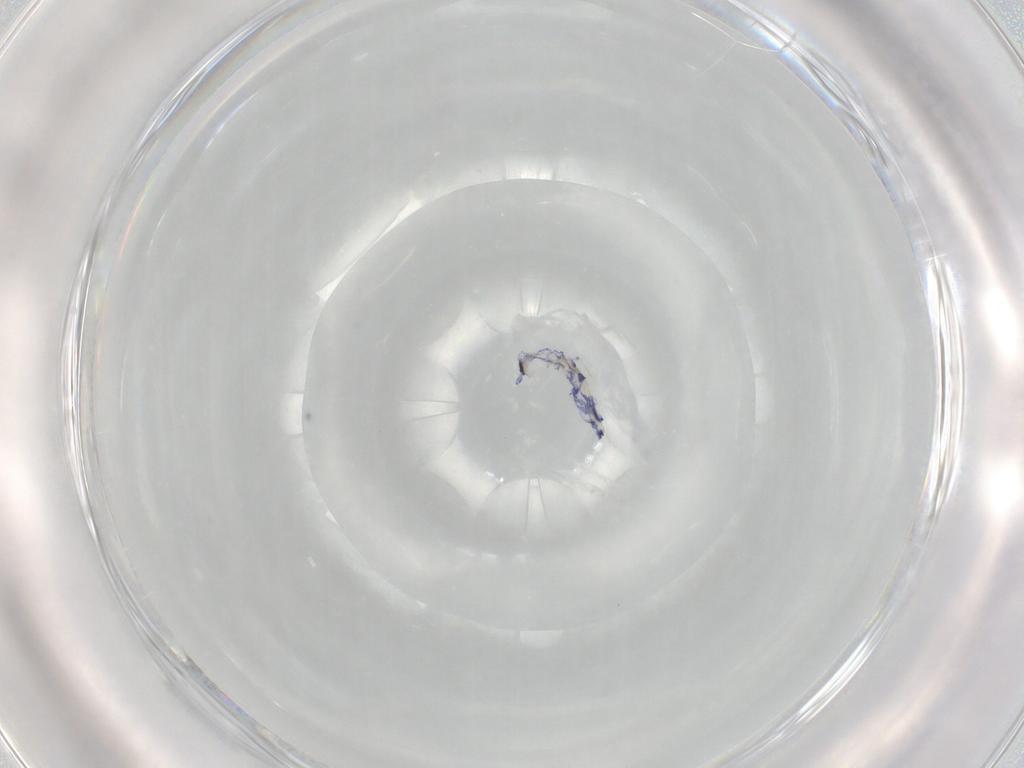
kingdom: Animalia
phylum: Arthropoda
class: Collembola
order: Entomobryomorpha
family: Entomobryidae
